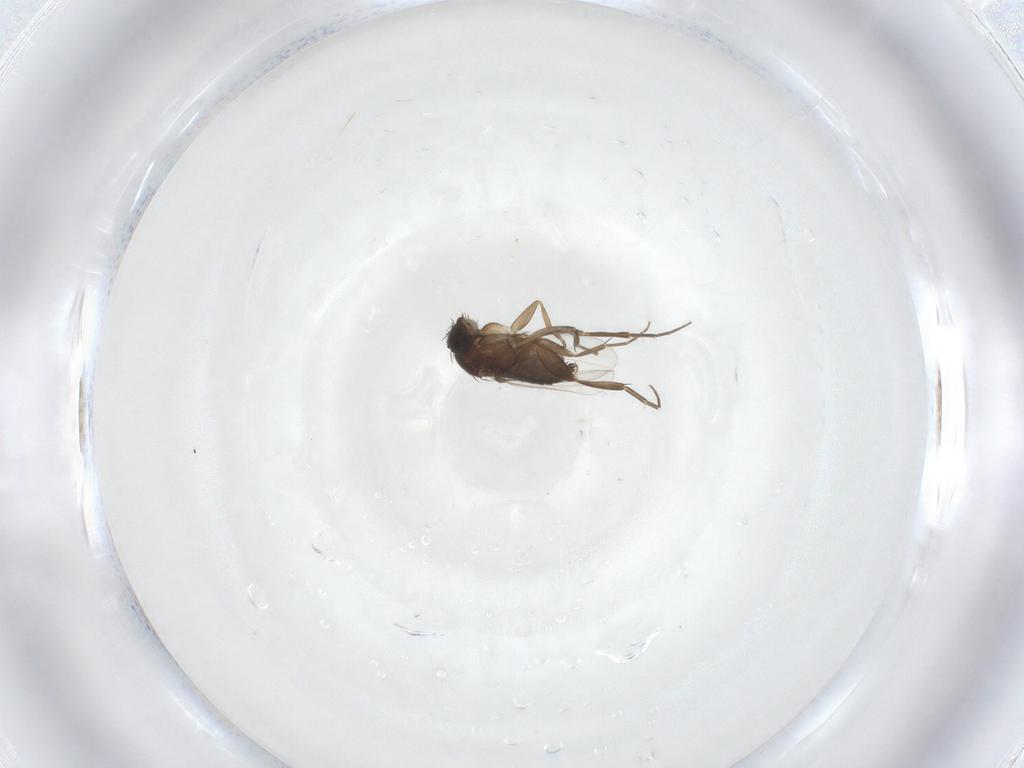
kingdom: Animalia
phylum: Arthropoda
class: Insecta
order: Diptera
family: Phoridae
